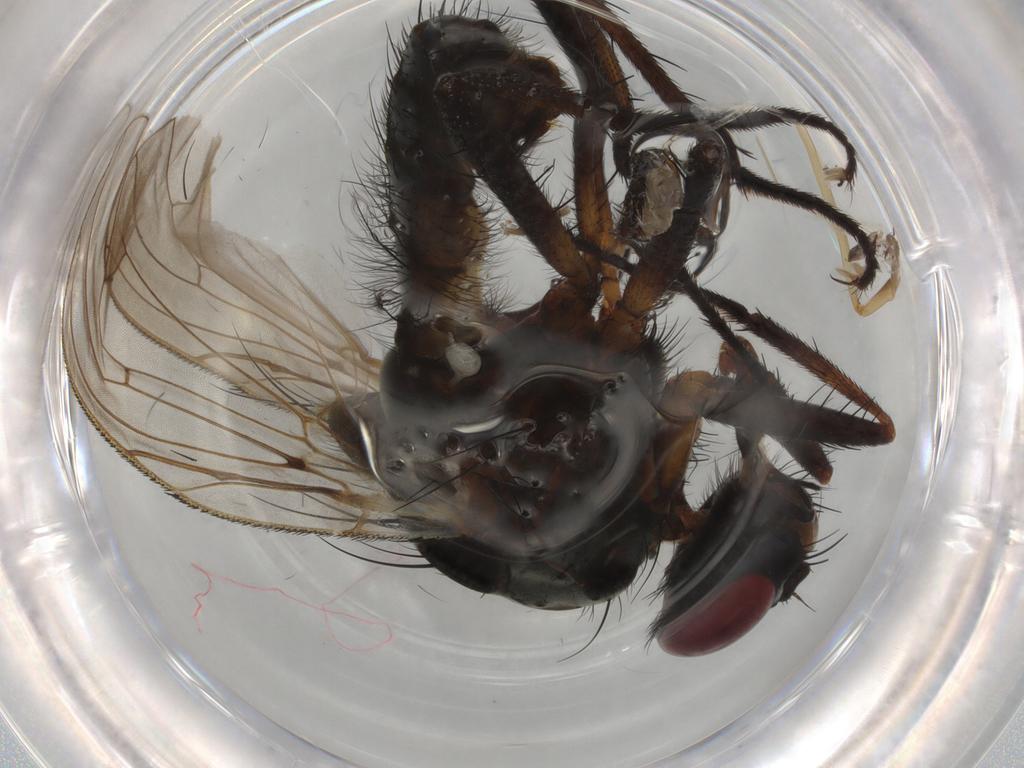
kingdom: Animalia
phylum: Arthropoda
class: Insecta
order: Diptera
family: Anthomyiidae
